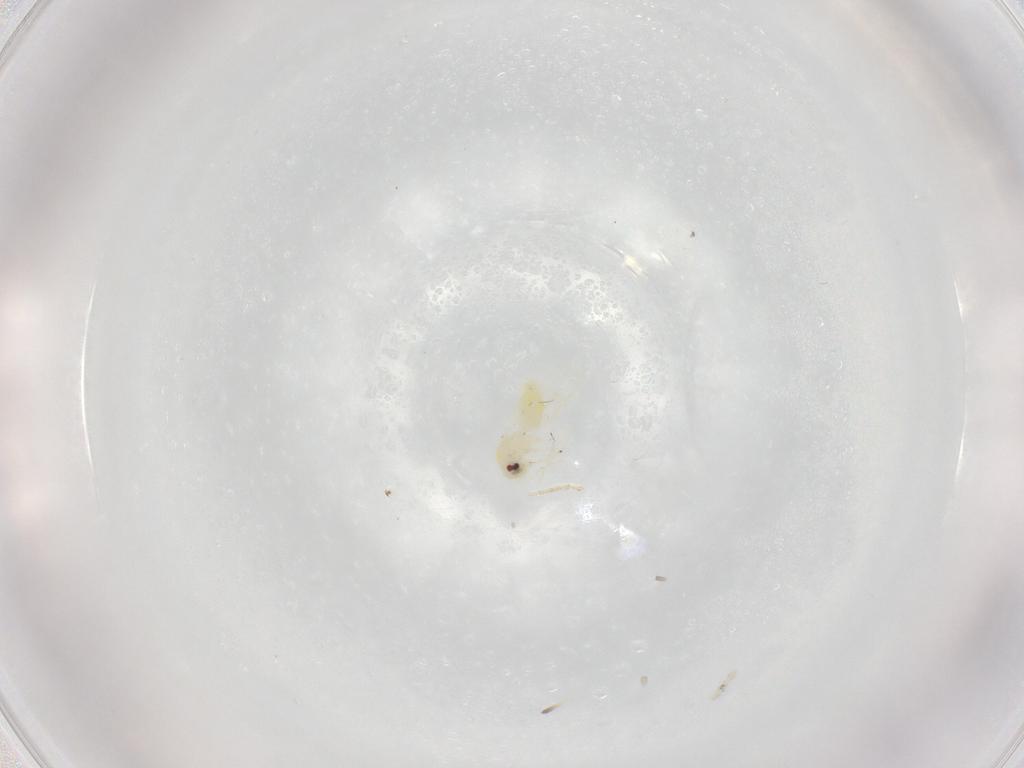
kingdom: Animalia
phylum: Arthropoda
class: Insecta
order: Hemiptera
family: Aleyrodidae
